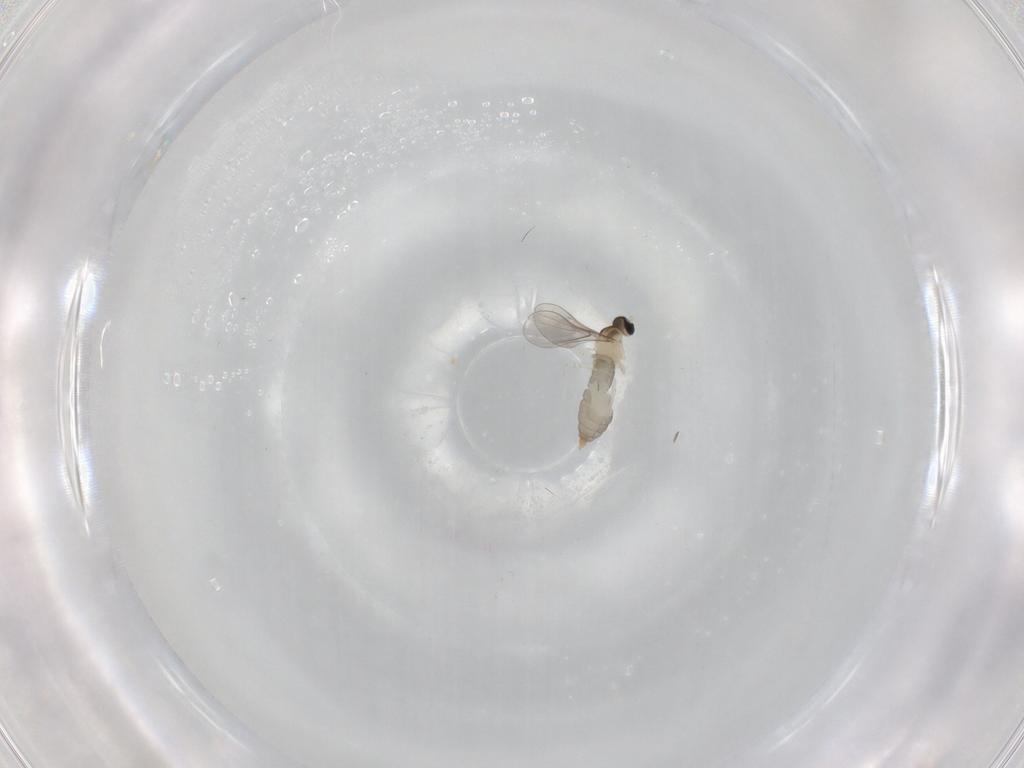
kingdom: Animalia
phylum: Arthropoda
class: Insecta
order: Diptera
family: Cecidomyiidae
